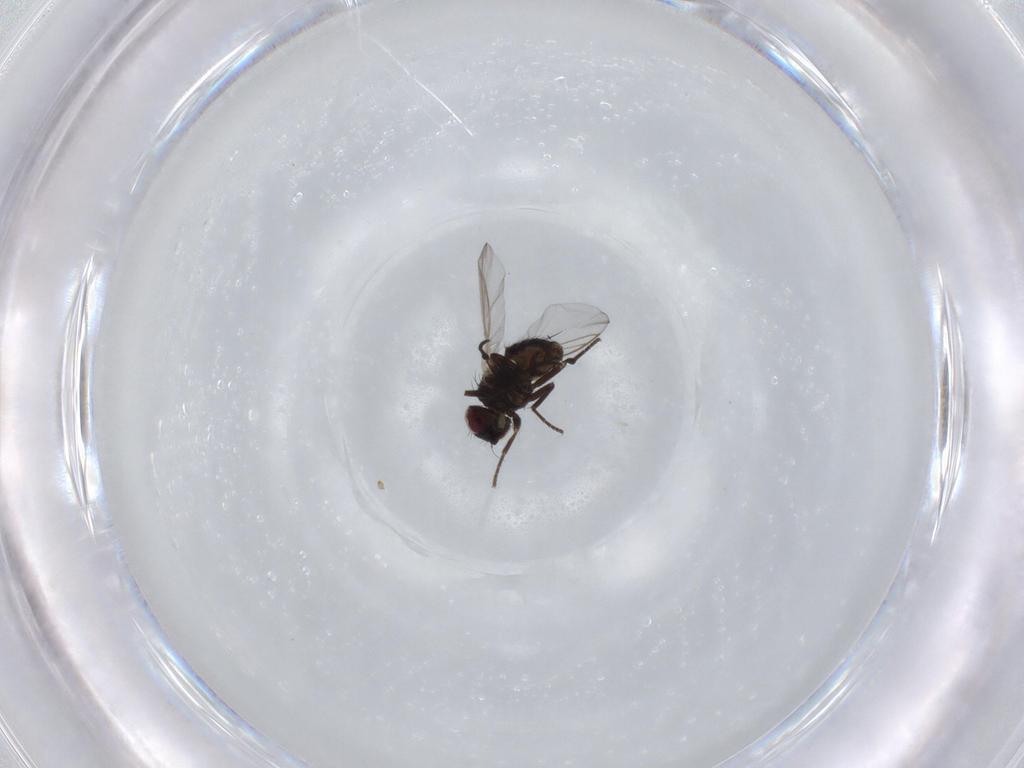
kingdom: Animalia
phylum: Arthropoda
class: Insecta
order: Diptera
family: Agromyzidae
